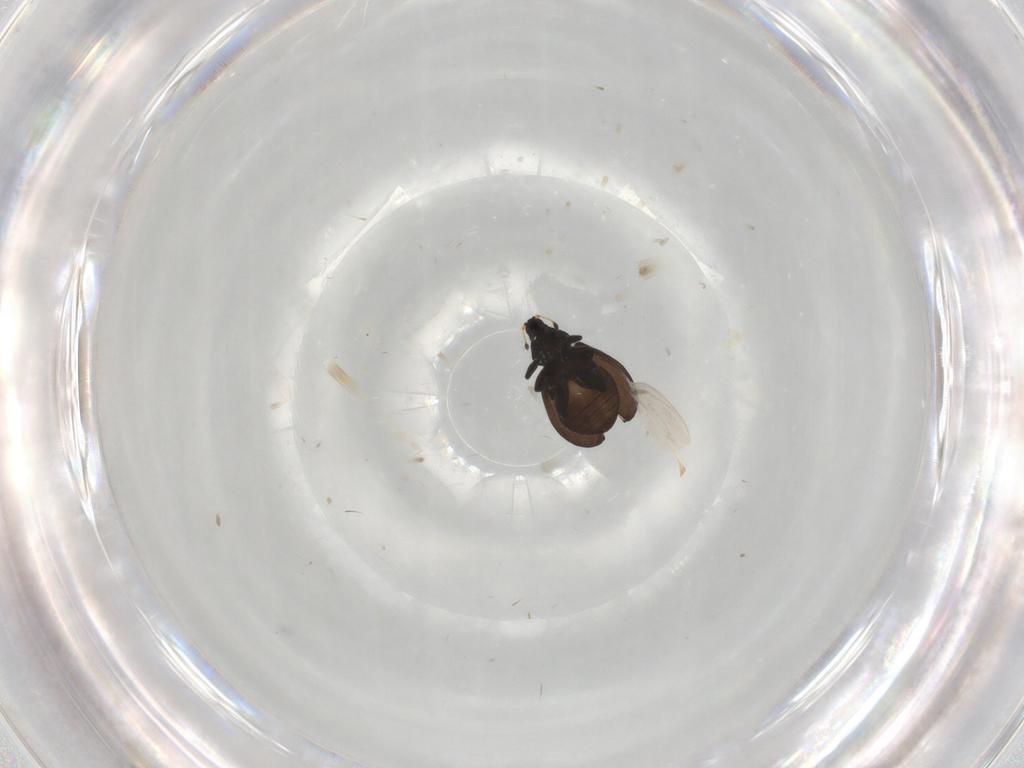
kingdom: Animalia
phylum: Arthropoda
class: Insecta
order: Coleoptera
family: Curculionidae
